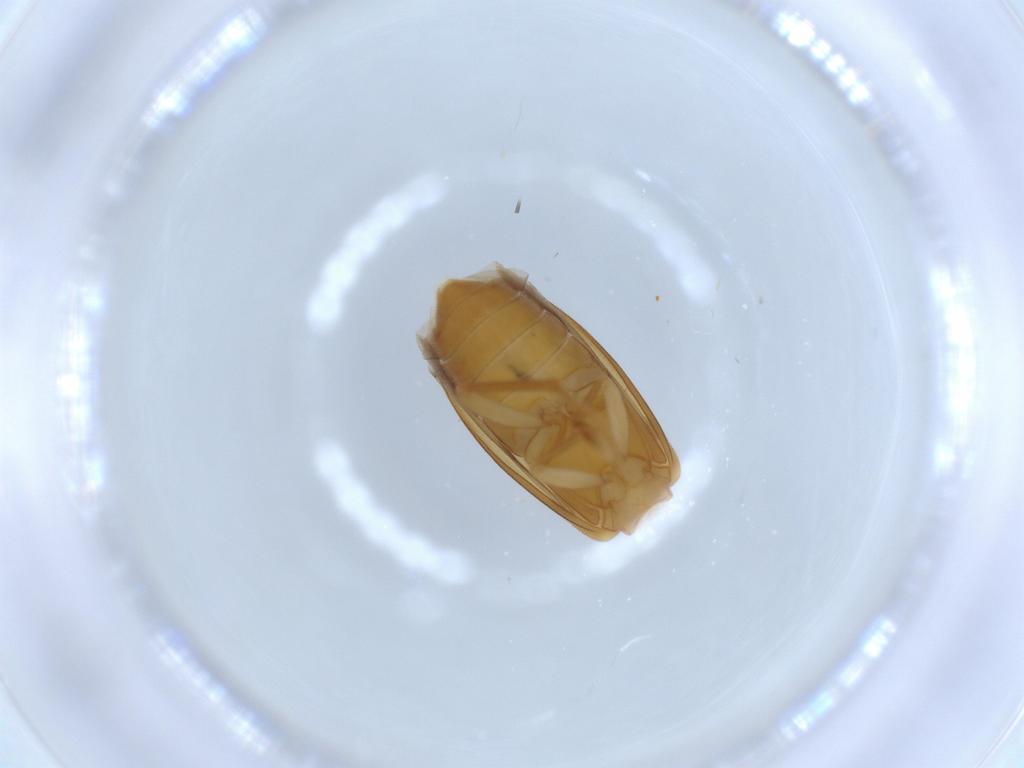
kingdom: Animalia
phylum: Arthropoda
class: Insecta
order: Coleoptera
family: Scraptiidae
